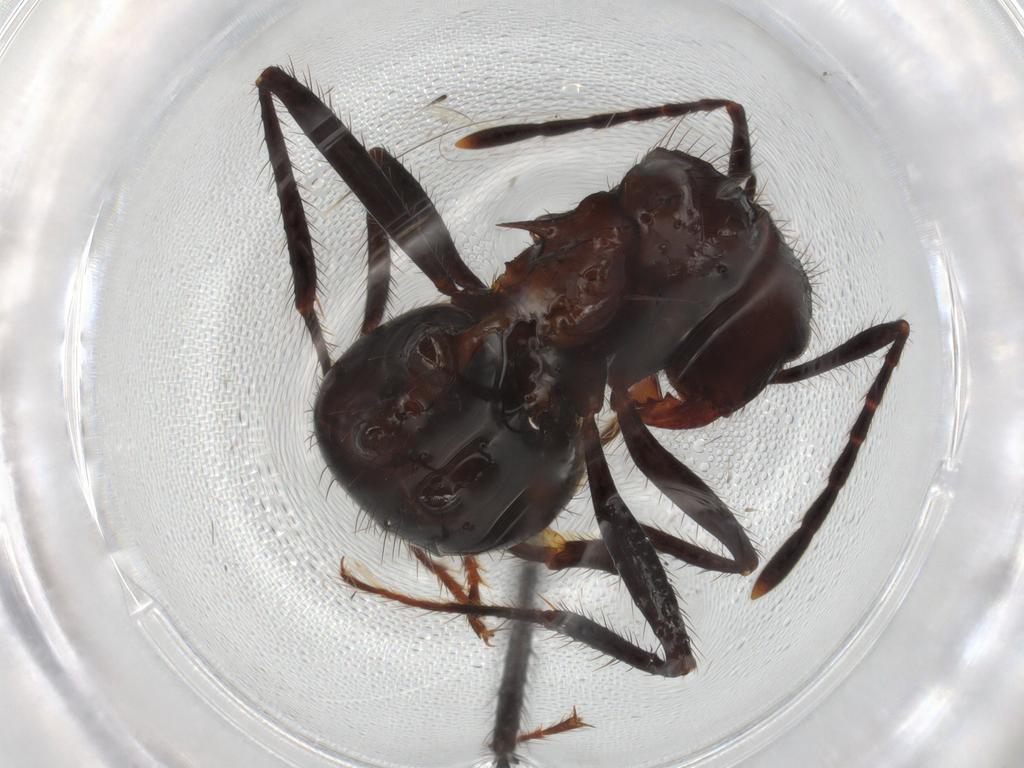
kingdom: Animalia
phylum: Arthropoda
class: Insecta
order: Hymenoptera
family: Formicidae
